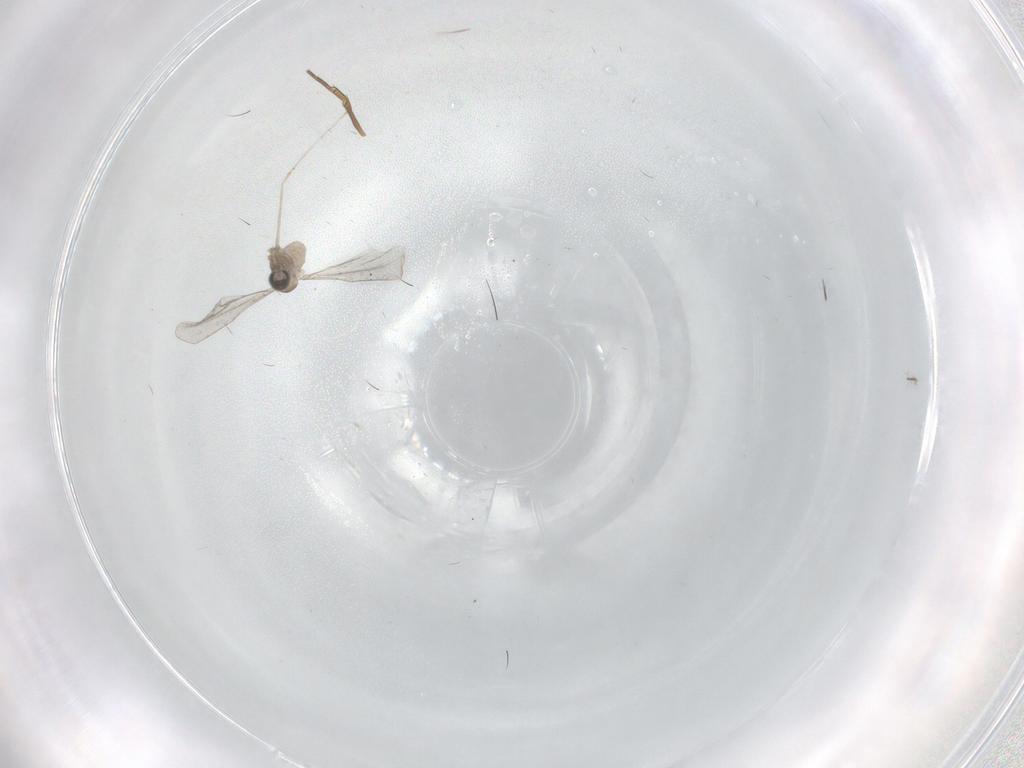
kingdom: Animalia
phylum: Arthropoda
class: Insecta
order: Diptera
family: Cecidomyiidae
